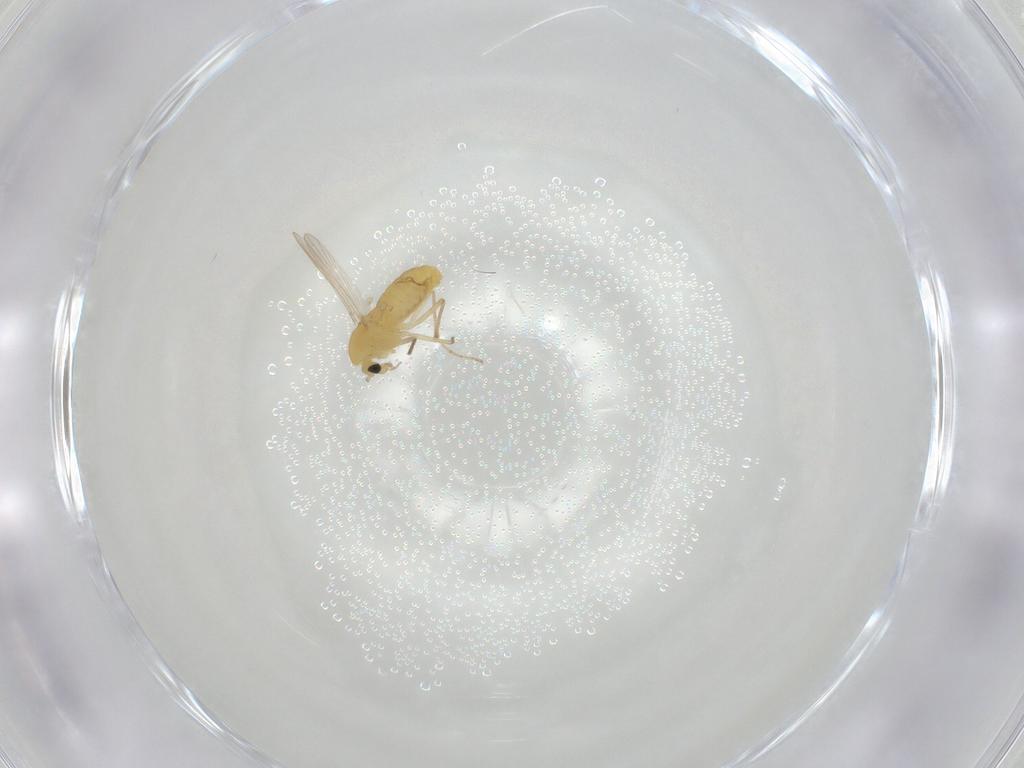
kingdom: Animalia
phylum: Arthropoda
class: Insecta
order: Diptera
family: Chironomidae
